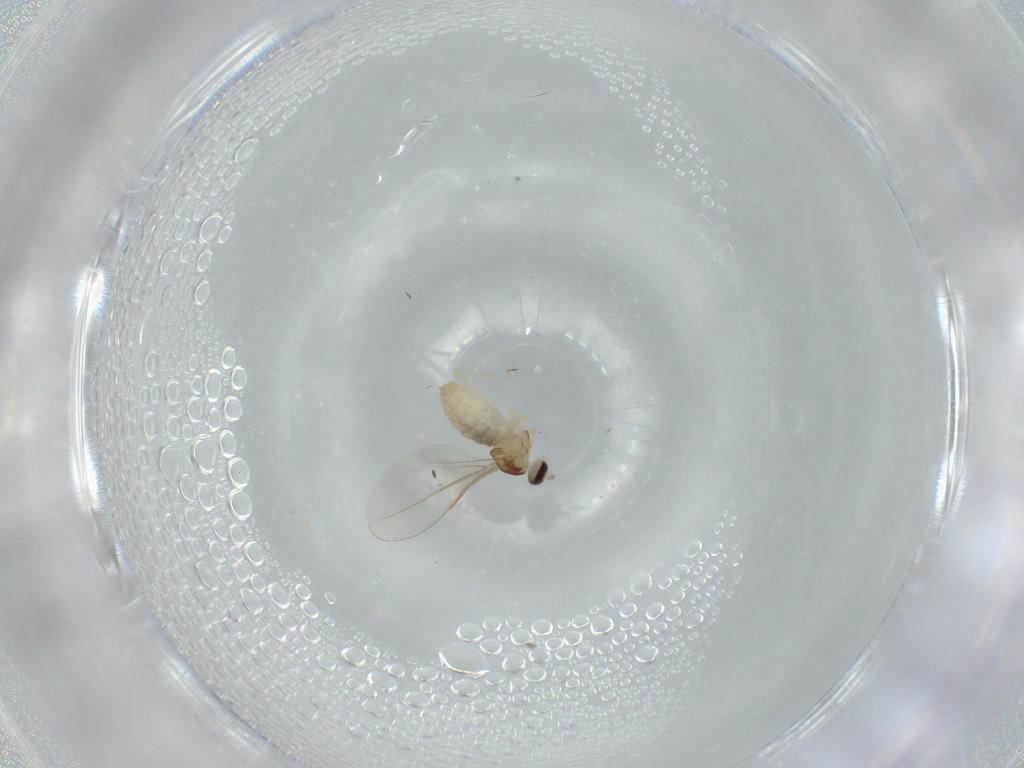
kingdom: Animalia
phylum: Arthropoda
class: Insecta
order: Diptera
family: Cecidomyiidae
